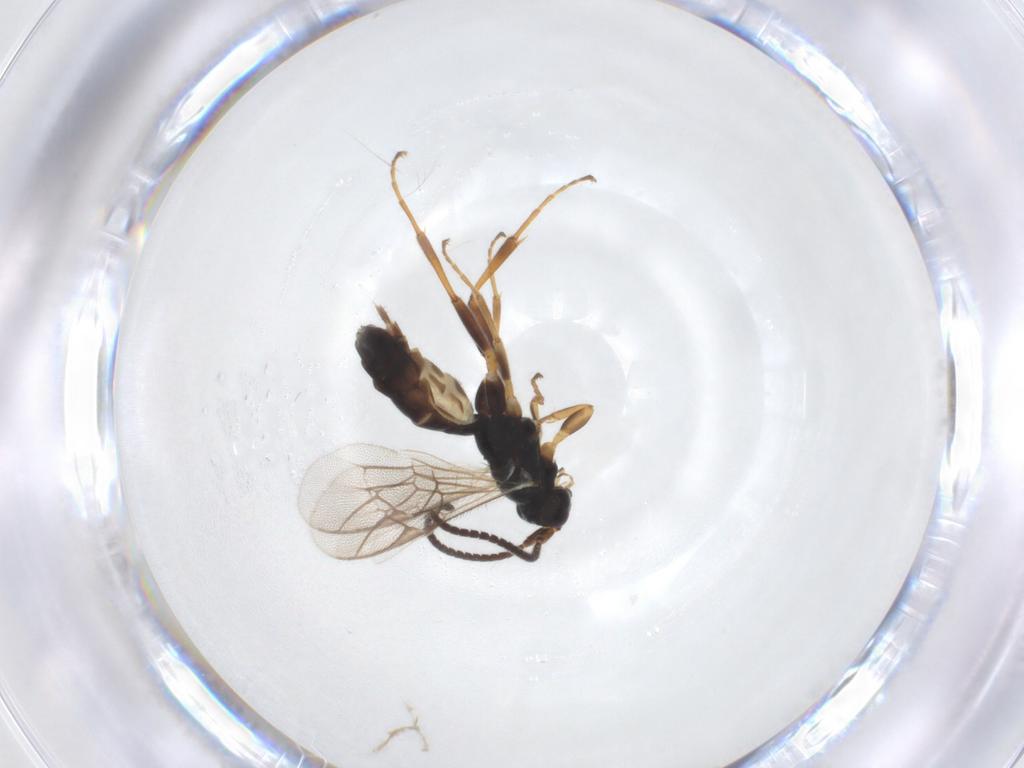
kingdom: Animalia
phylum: Arthropoda
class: Insecta
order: Hymenoptera
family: Ichneumonidae
